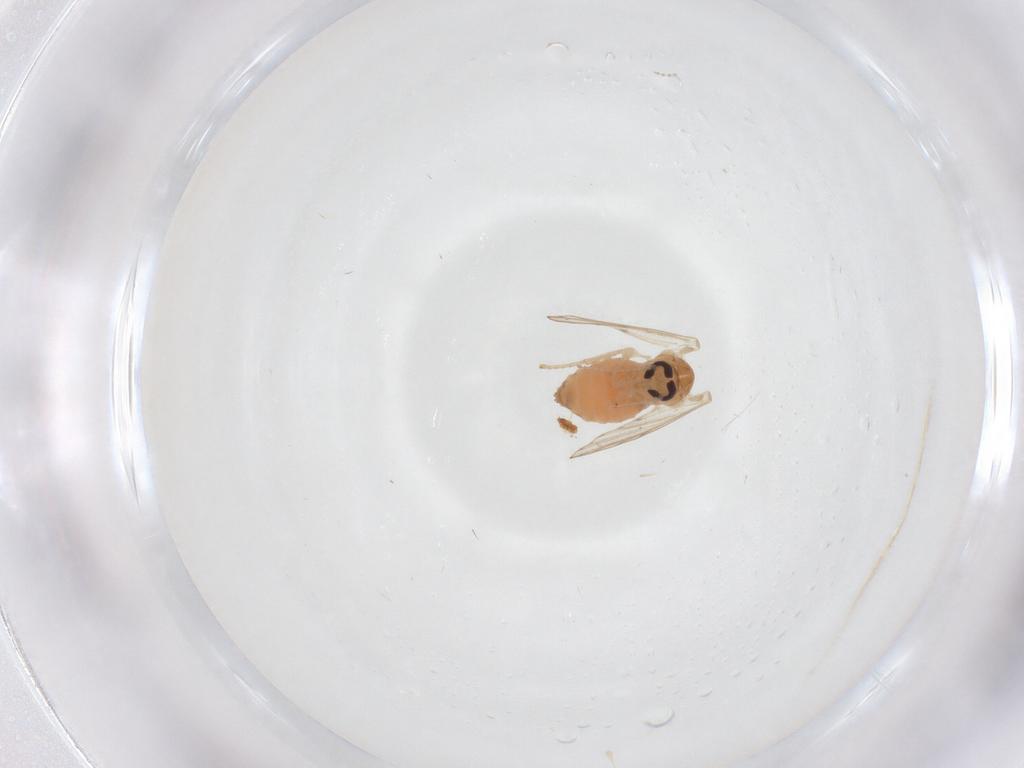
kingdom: Animalia
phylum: Arthropoda
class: Insecta
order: Diptera
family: Psychodidae
